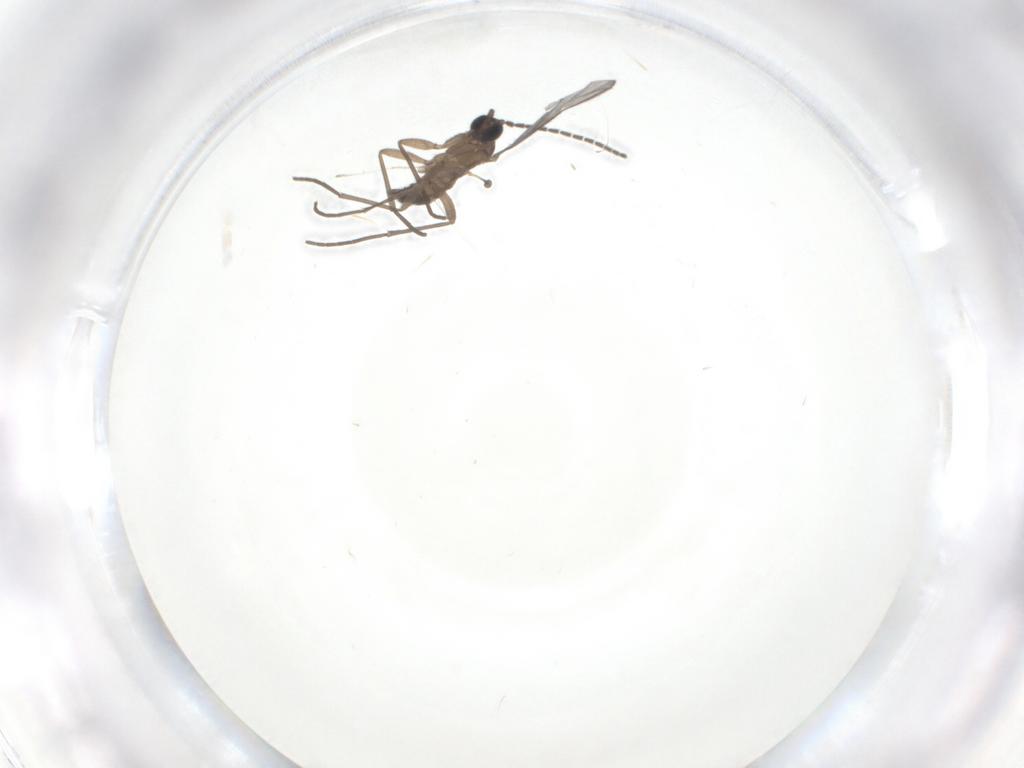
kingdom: Animalia
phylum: Arthropoda
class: Insecta
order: Diptera
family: Sciaridae
